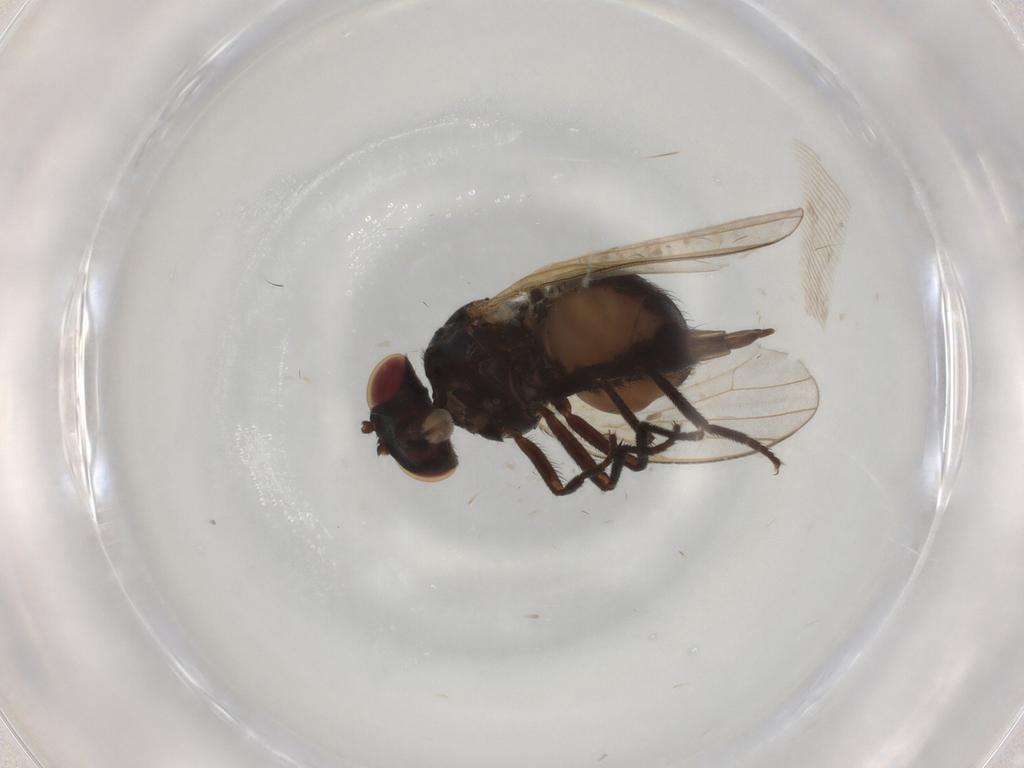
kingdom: Animalia
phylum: Arthropoda
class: Insecta
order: Diptera
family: Lonchaeidae
